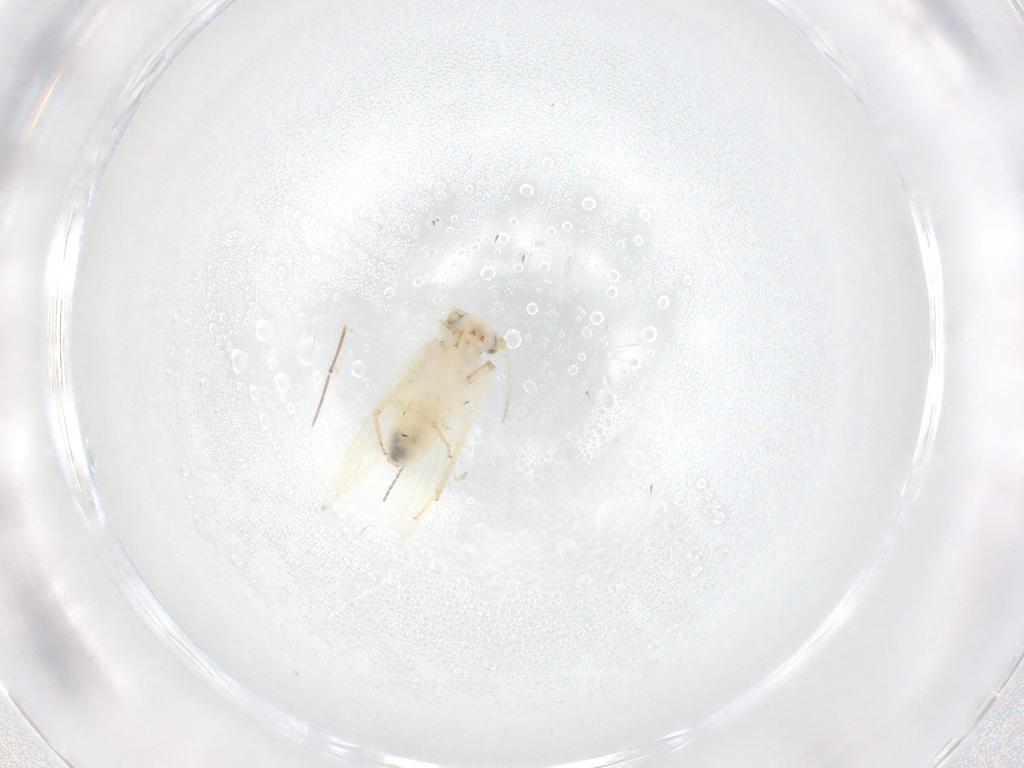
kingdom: Animalia
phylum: Arthropoda
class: Insecta
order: Psocodea
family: Lepidopsocidae
